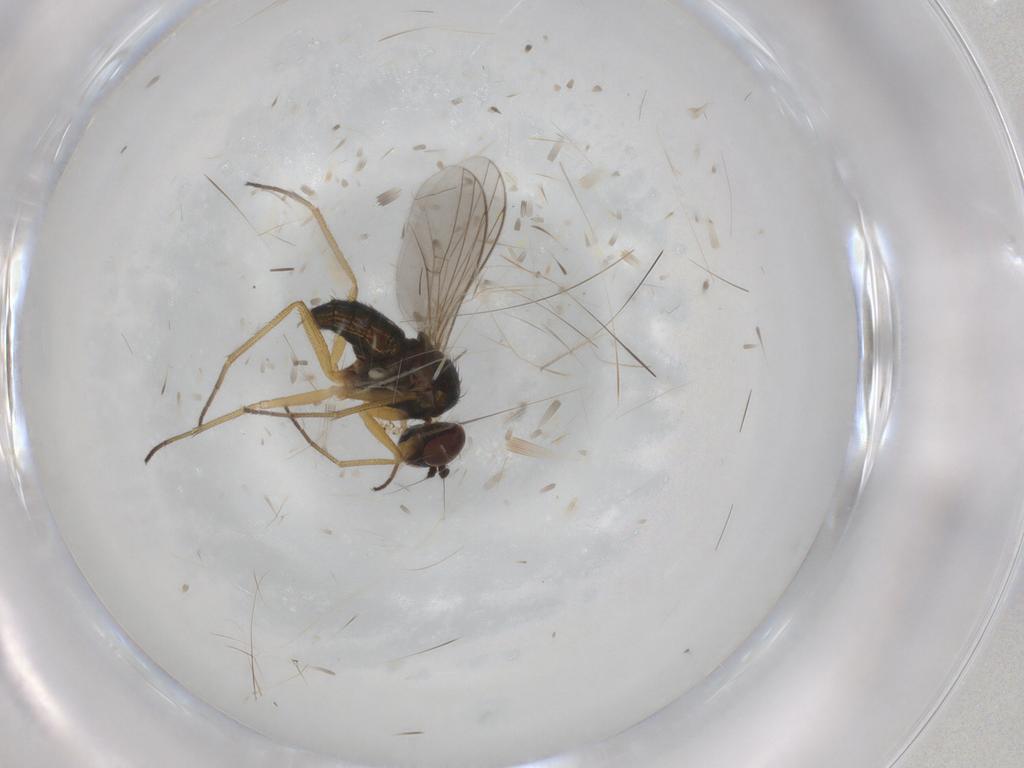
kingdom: Animalia
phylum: Arthropoda
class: Insecta
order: Diptera
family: Dolichopodidae
